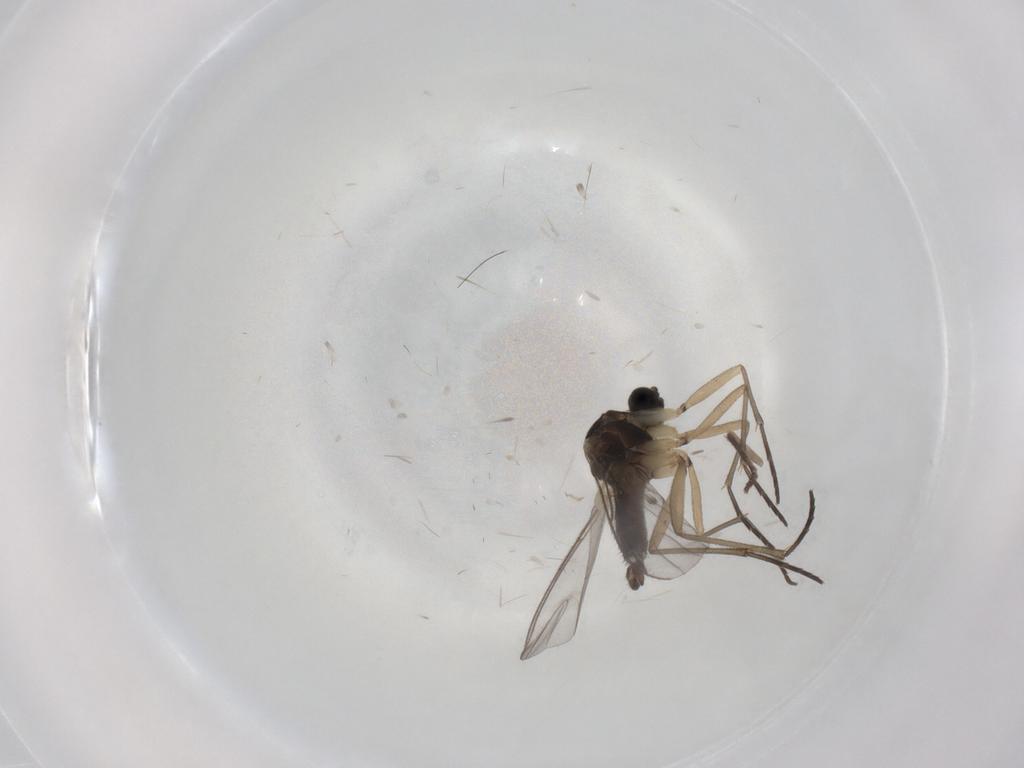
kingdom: Animalia
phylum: Arthropoda
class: Insecta
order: Diptera
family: Sciaridae
